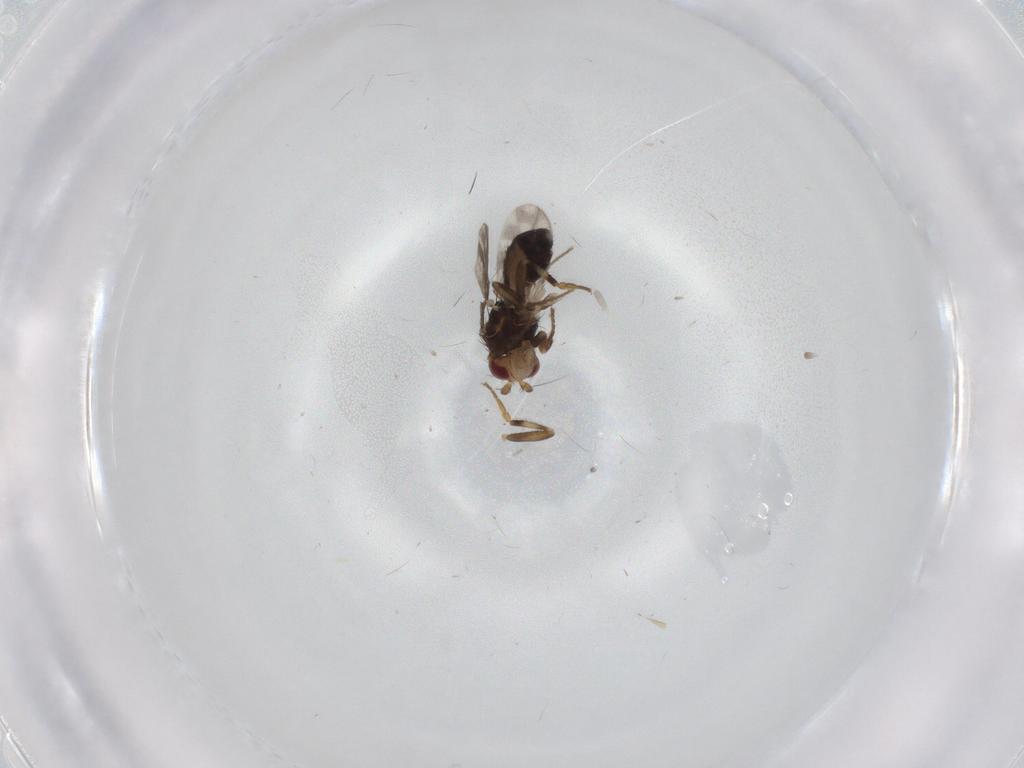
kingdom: Animalia
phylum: Arthropoda
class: Insecta
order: Diptera
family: Sphaeroceridae
